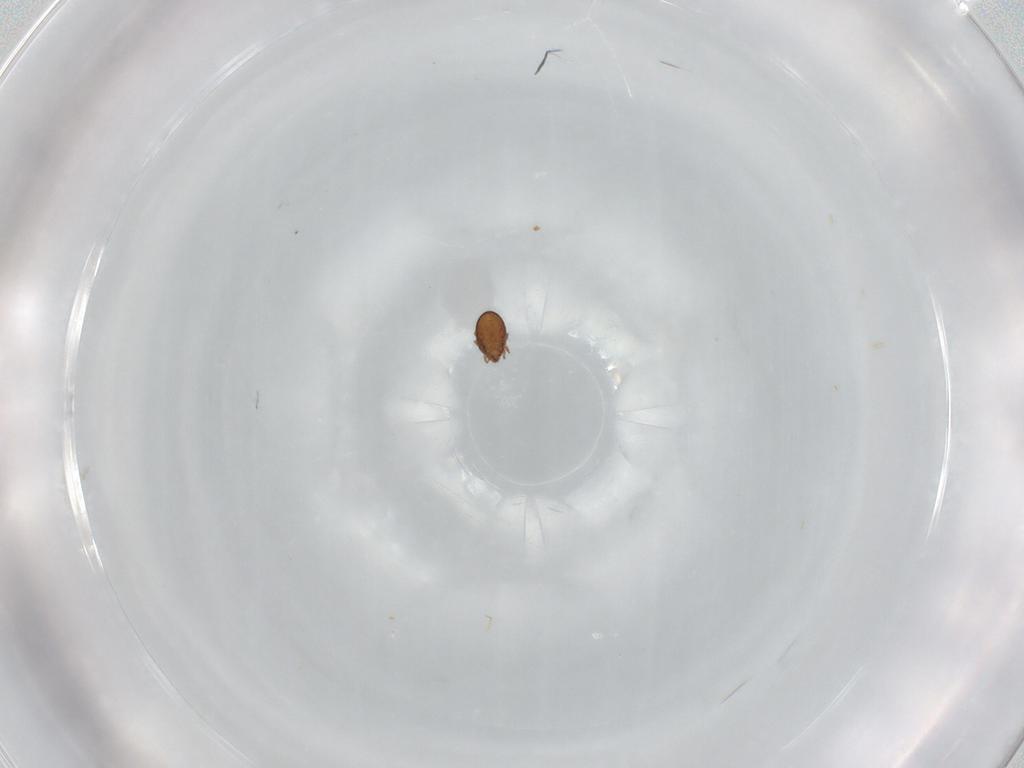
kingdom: Animalia
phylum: Arthropoda
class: Arachnida
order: Sarcoptiformes
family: Scheloribatidae
